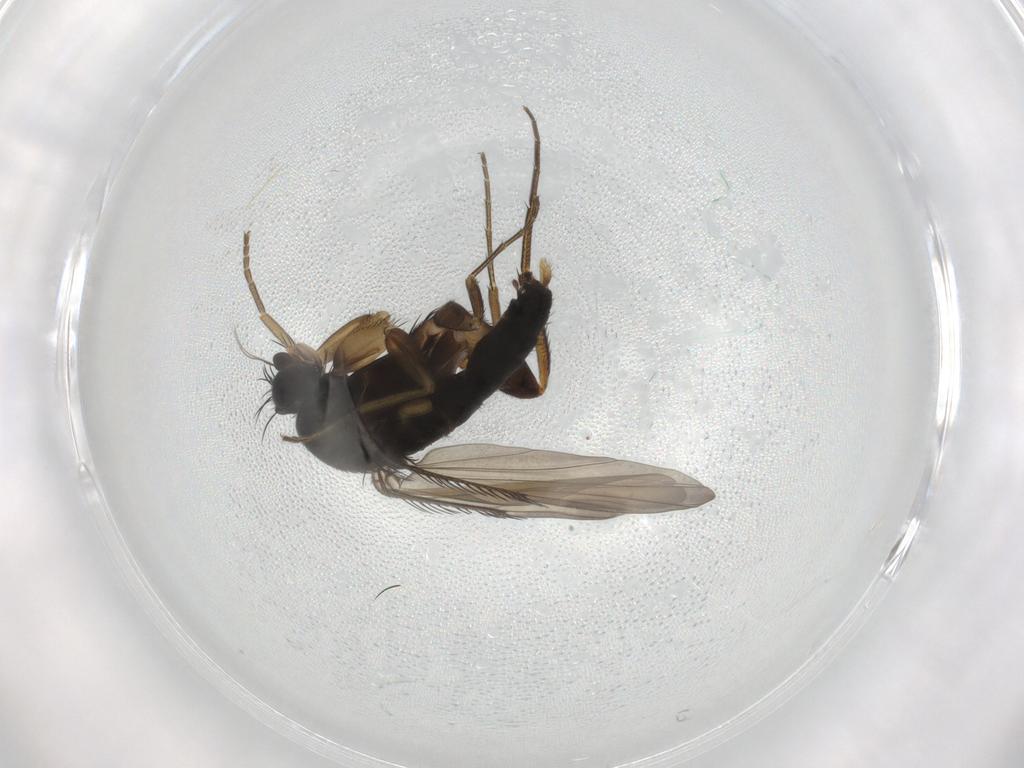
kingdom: Animalia
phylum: Arthropoda
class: Insecta
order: Diptera
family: Phoridae
